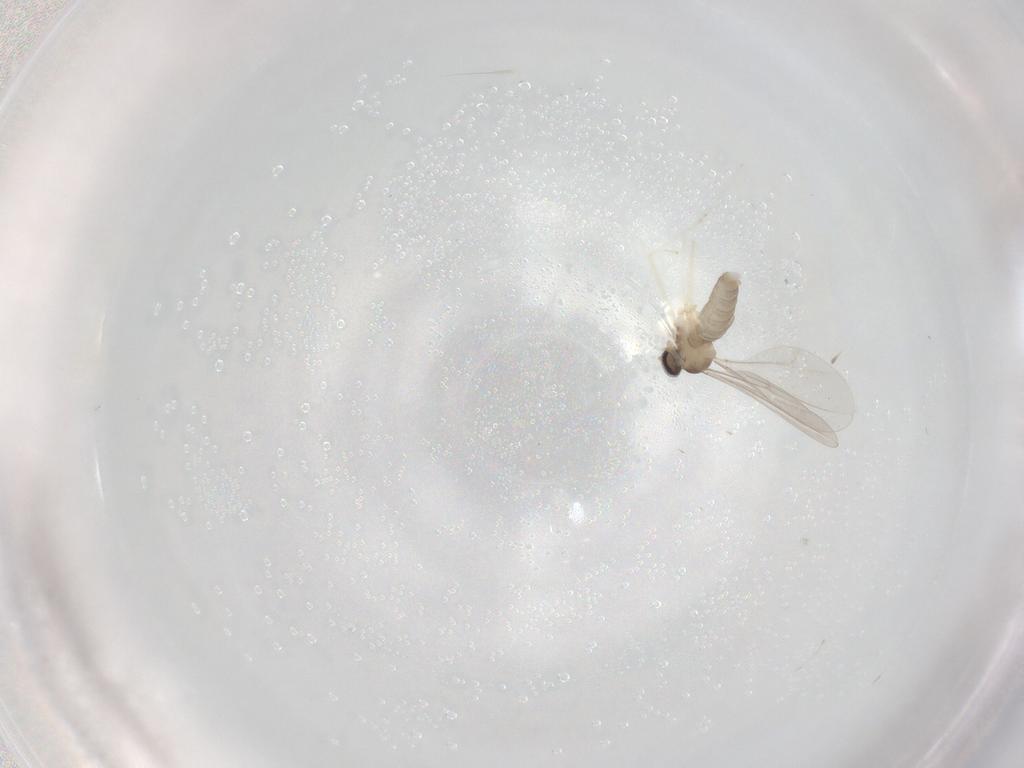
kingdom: Animalia
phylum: Arthropoda
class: Insecta
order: Diptera
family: Cecidomyiidae
